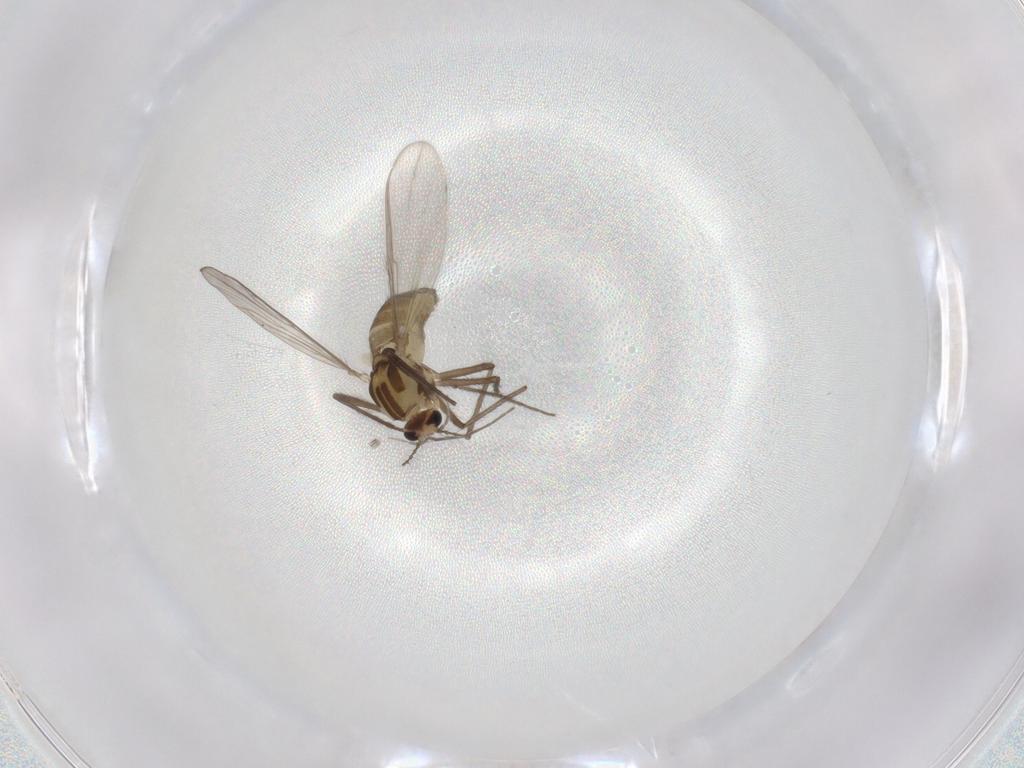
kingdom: Animalia
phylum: Arthropoda
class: Insecta
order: Diptera
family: Chironomidae
